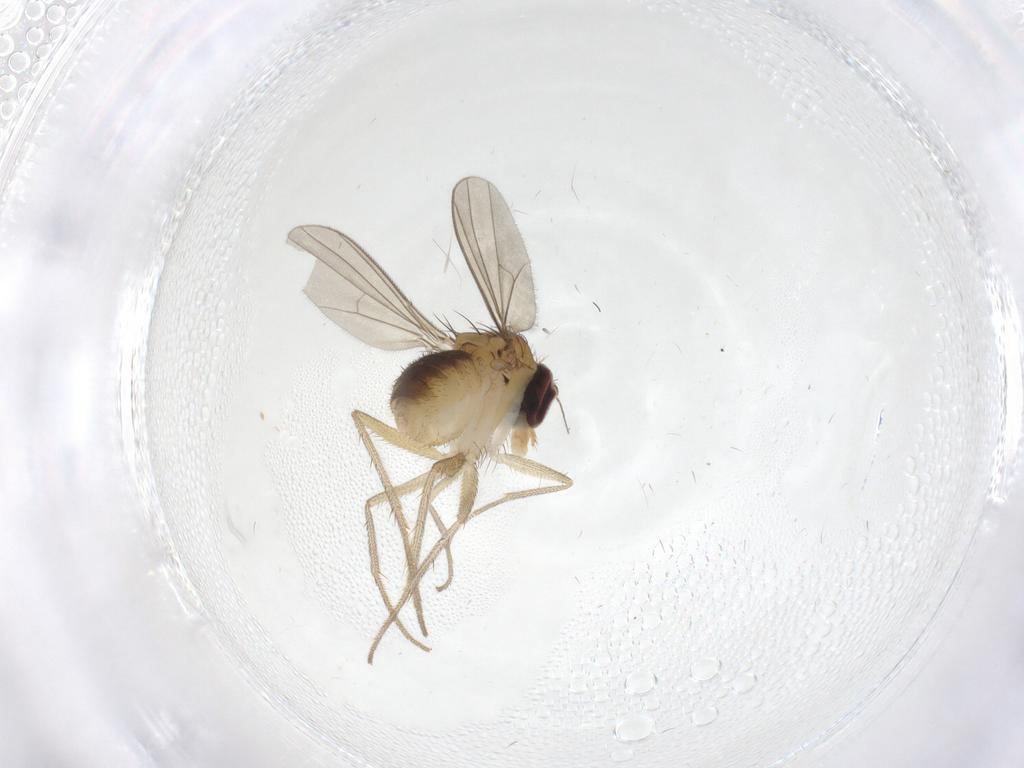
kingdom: Animalia
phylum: Arthropoda
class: Insecta
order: Diptera
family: Dolichopodidae
